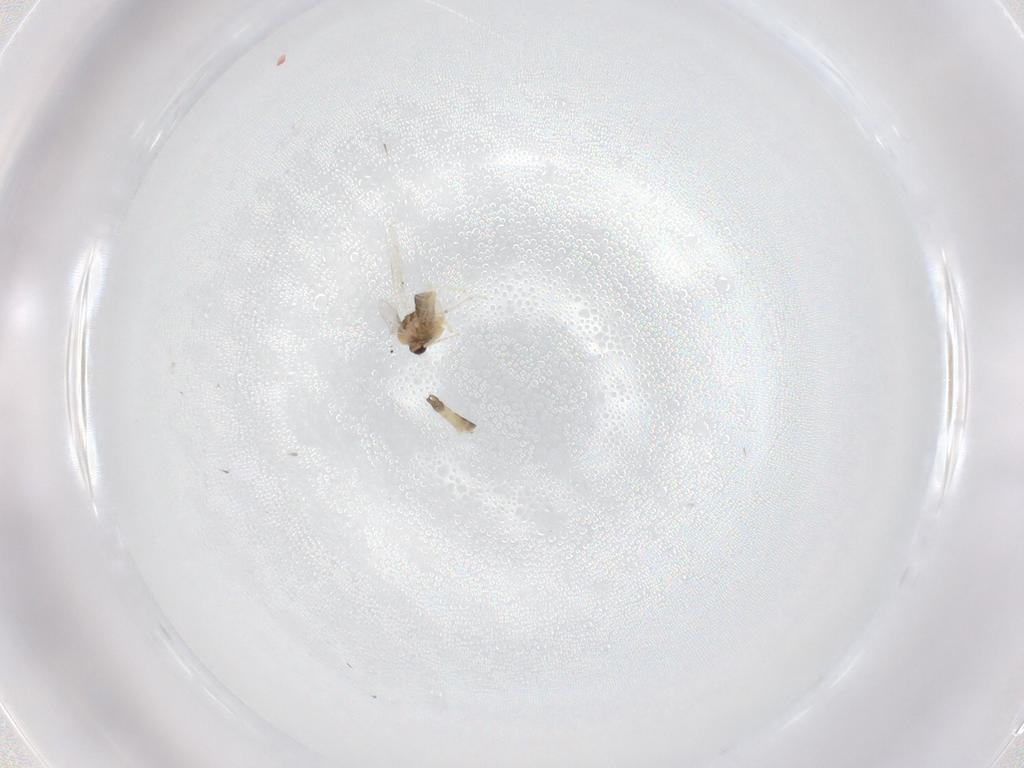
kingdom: Animalia
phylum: Arthropoda
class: Insecta
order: Diptera
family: Chironomidae
